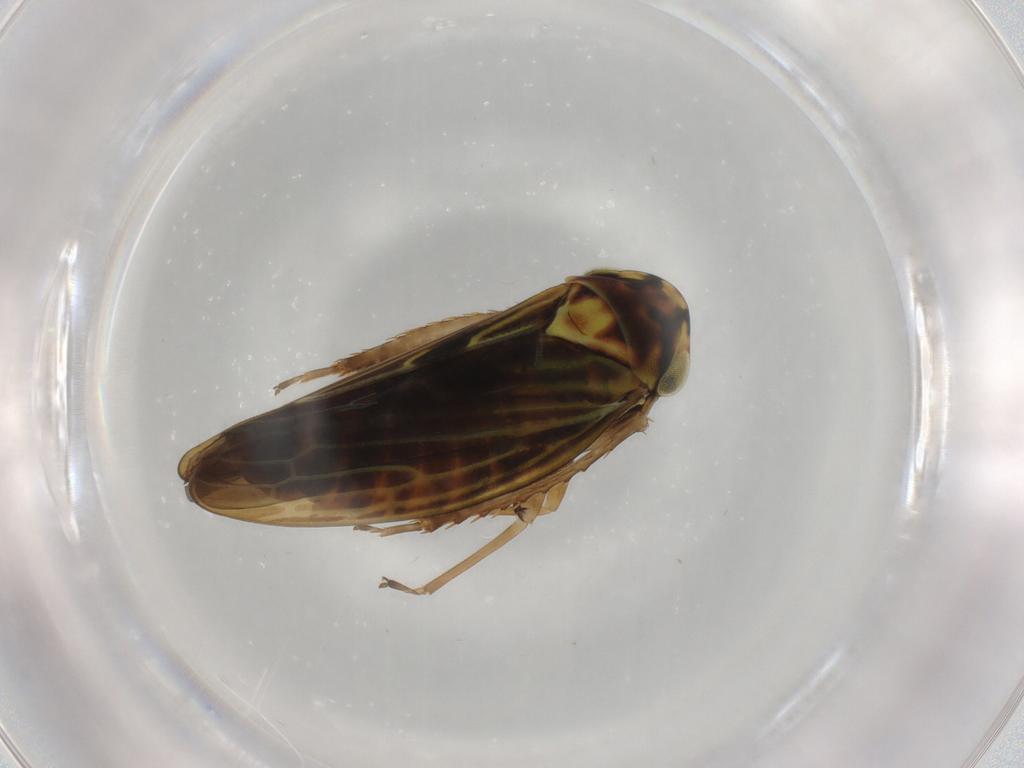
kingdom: Animalia
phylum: Arthropoda
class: Insecta
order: Hemiptera
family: Cicadellidae
